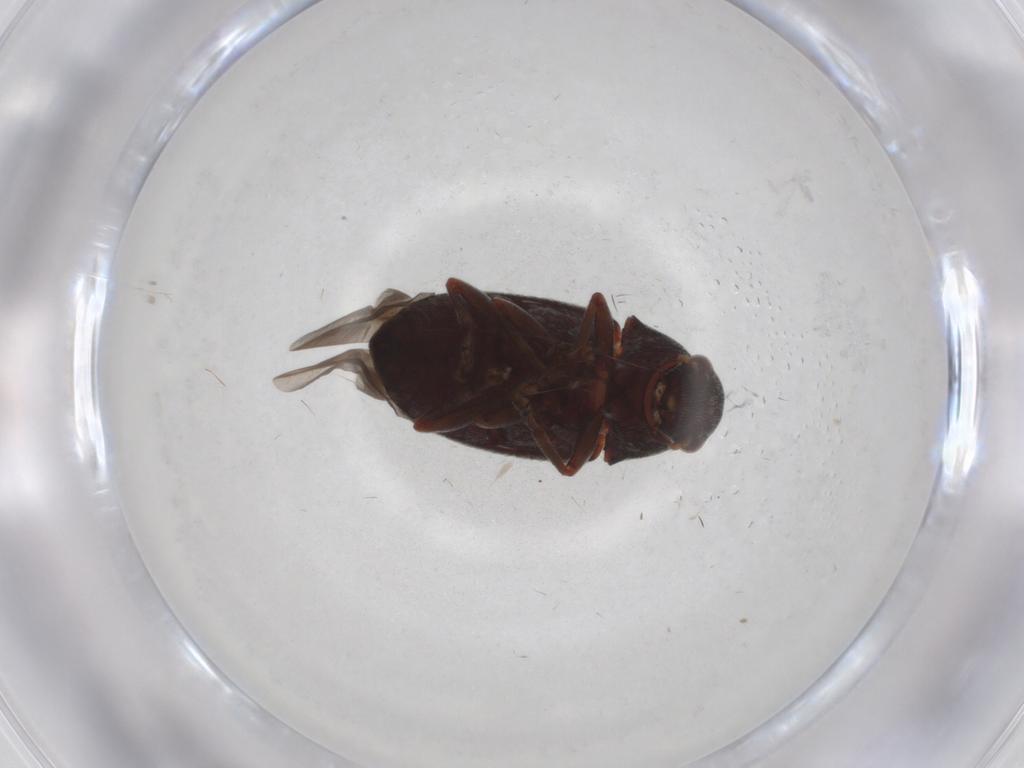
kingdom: Animalia
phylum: Arthropoda
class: Insecta
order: Coleoptera
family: Anthribidae
